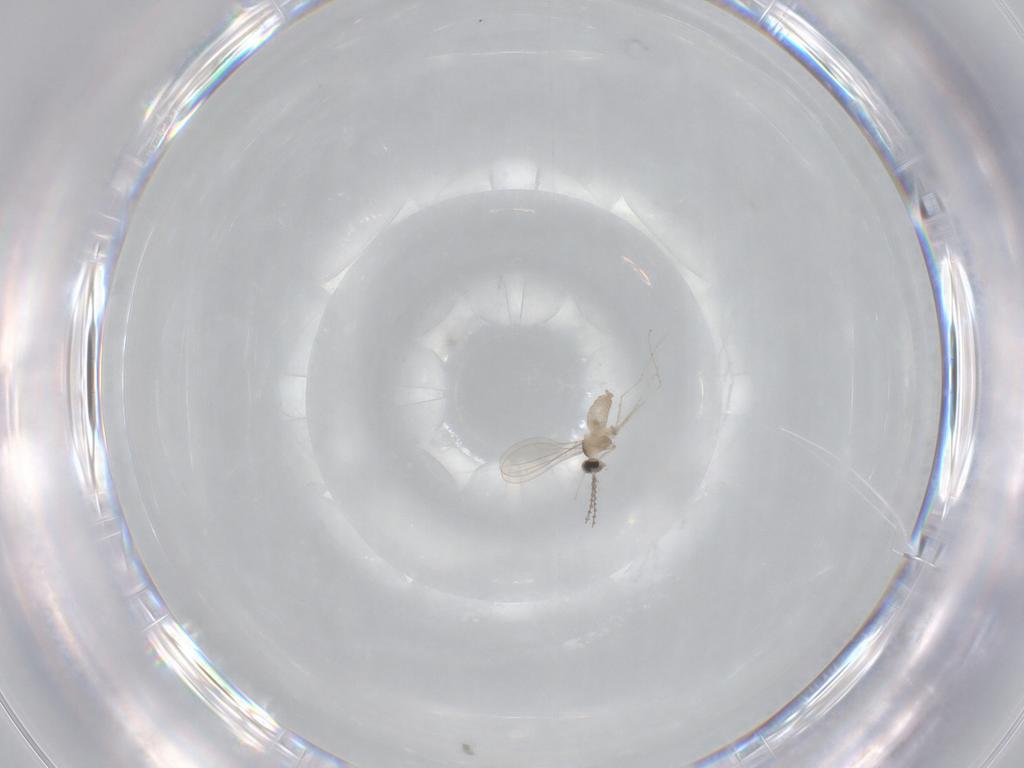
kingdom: Animalia
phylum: Arthropoda
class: Insecta
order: Diptera
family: Cecidomyiidae
